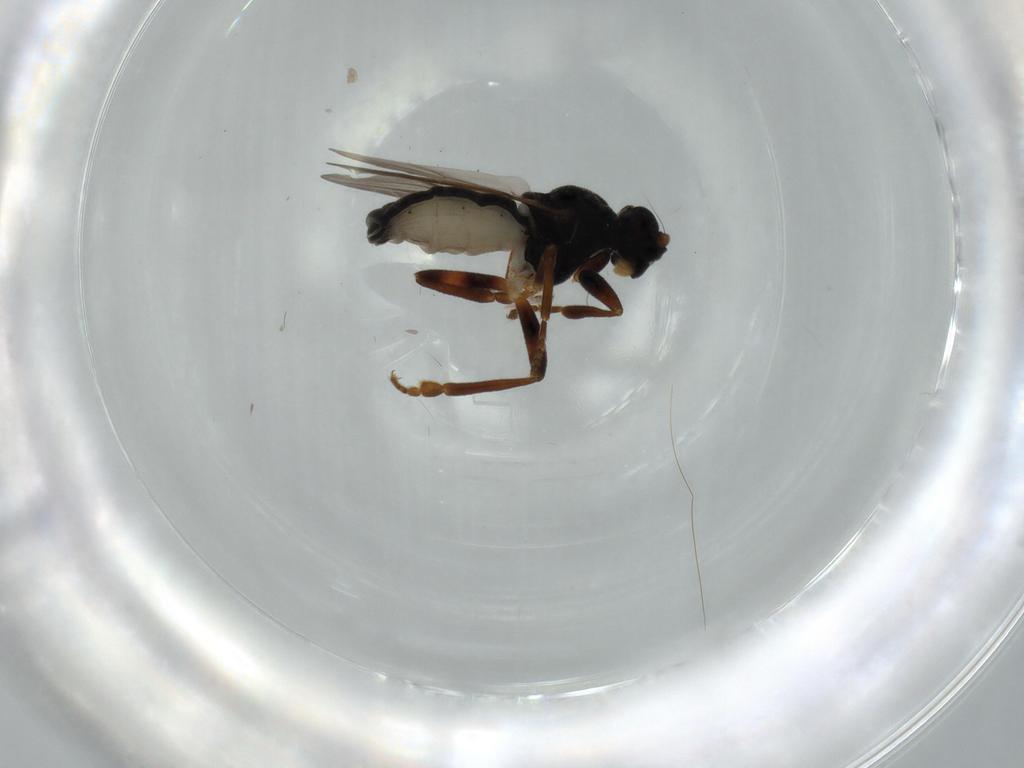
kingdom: Animalia
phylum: Arthropoda
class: Insecta
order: Diptera
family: Sphaeroceridae
